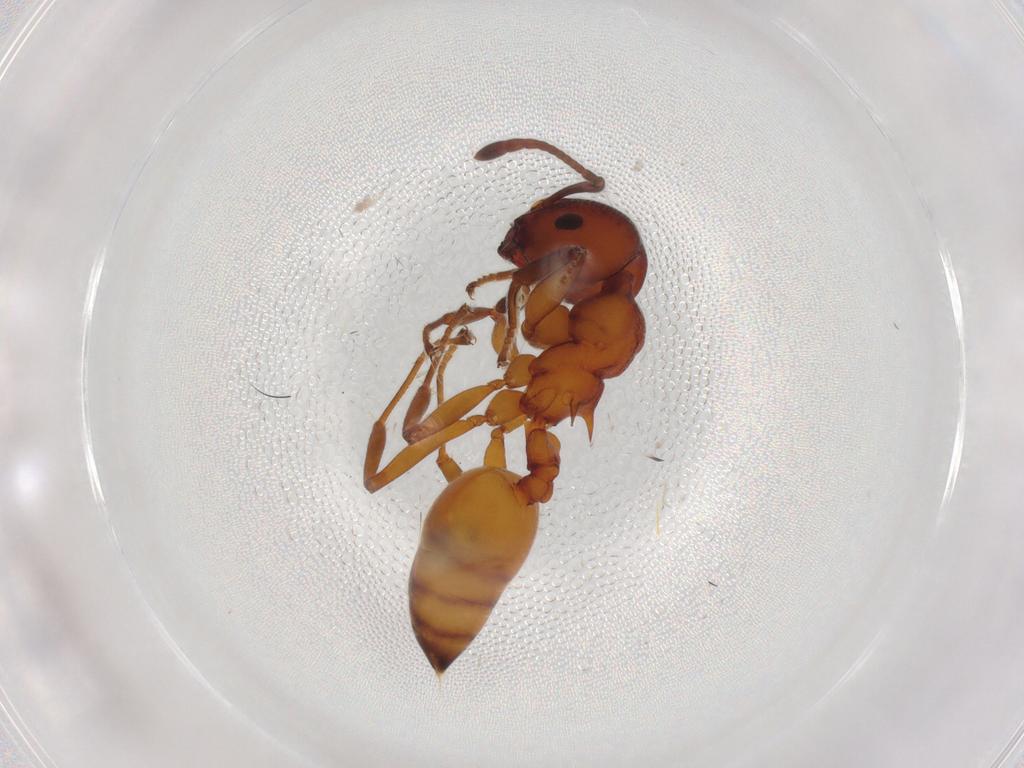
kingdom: Animalia
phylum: Arthropoda
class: Insecta
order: Hymenoptera
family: Formicidae
